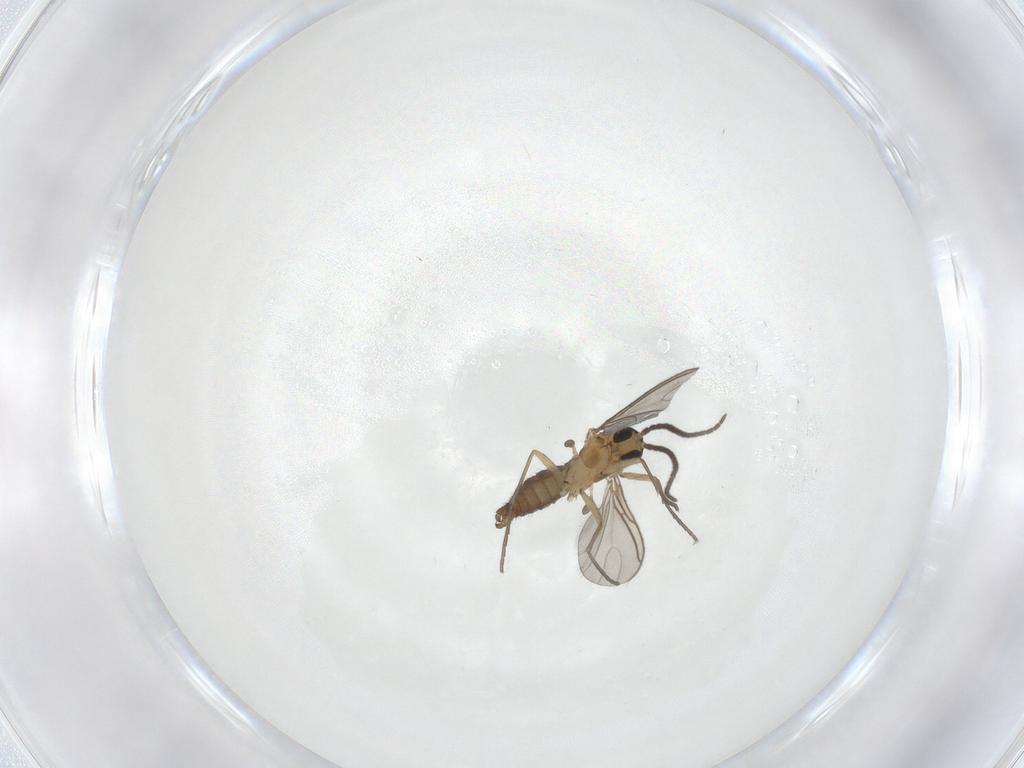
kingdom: Animalia
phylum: Arthropoda
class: Insecta
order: Diptera
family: Sciaridae
